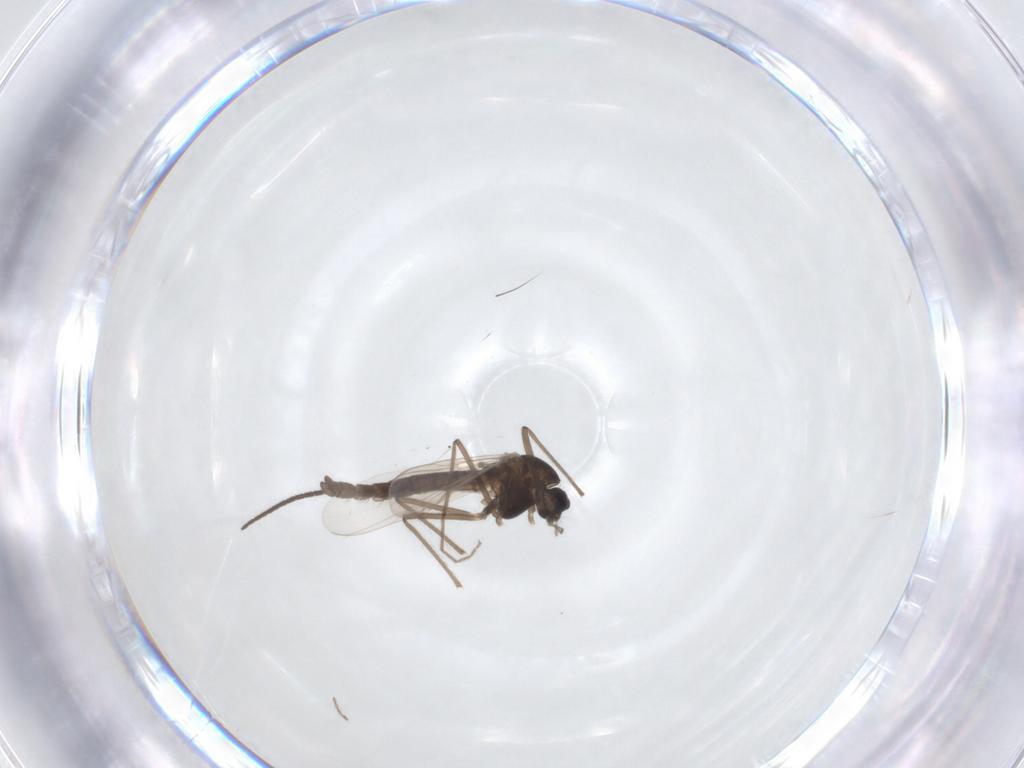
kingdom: Animalia
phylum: Arthropoda
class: Insecta
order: Diptera
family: Chironomidae
